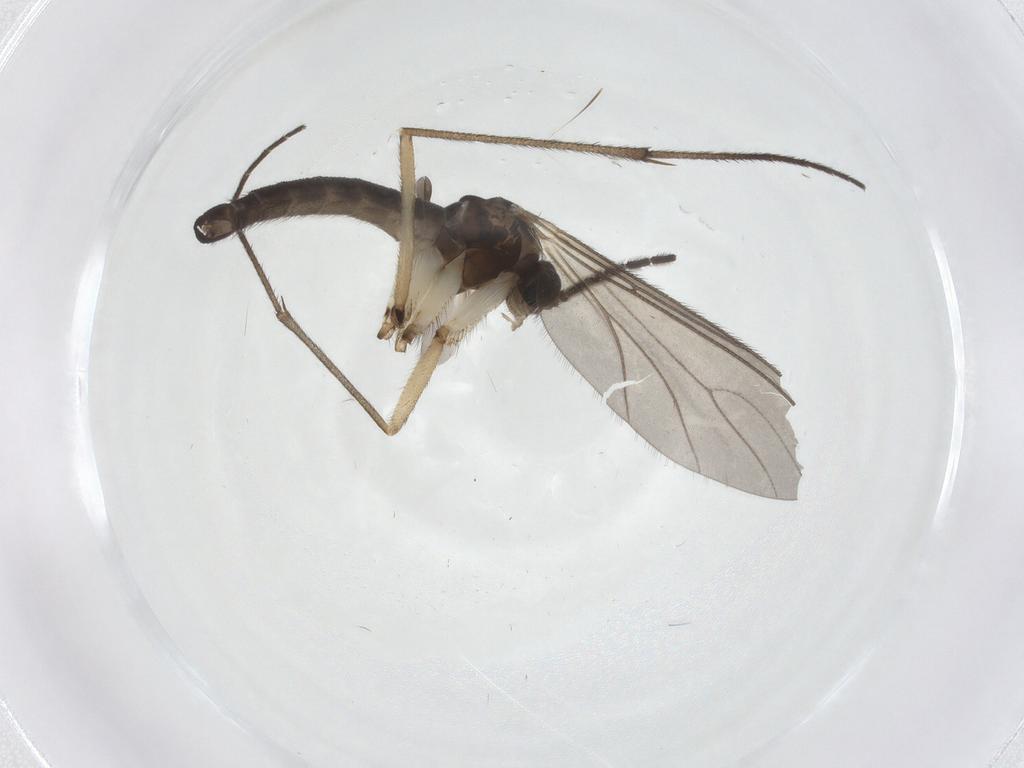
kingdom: Animalia
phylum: Arthropoda
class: Insecta
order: Diptera
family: Sciaridae
